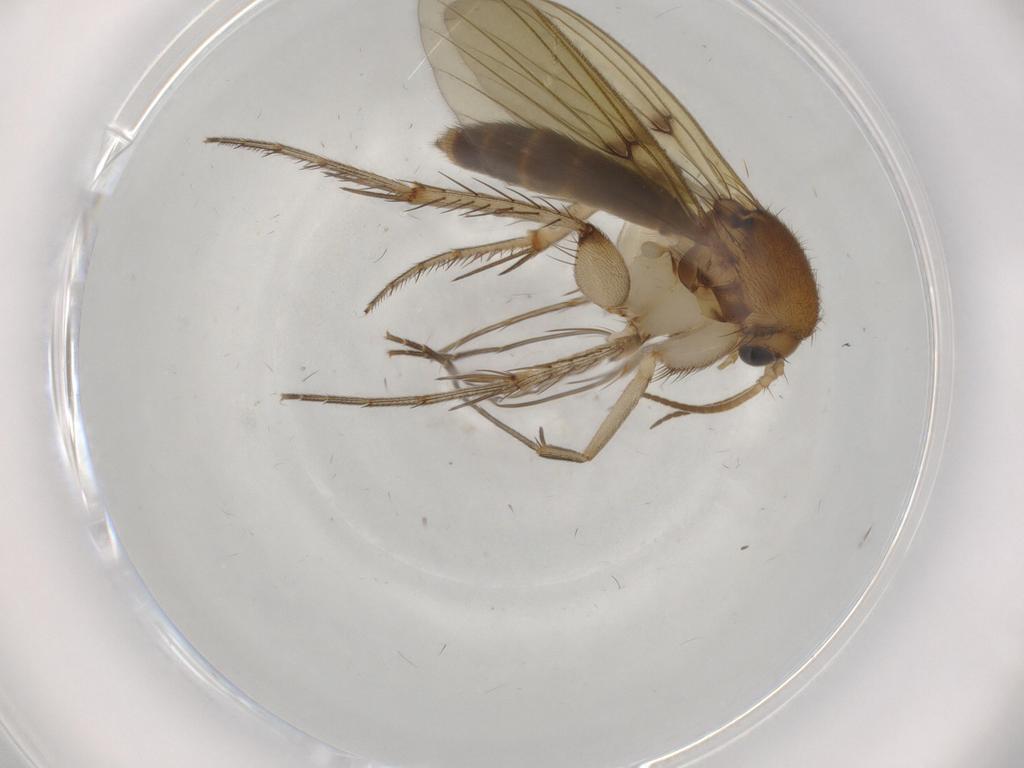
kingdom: Animalia
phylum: Arthropoda
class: Insecta
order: Diptera
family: Mycetophilidae
